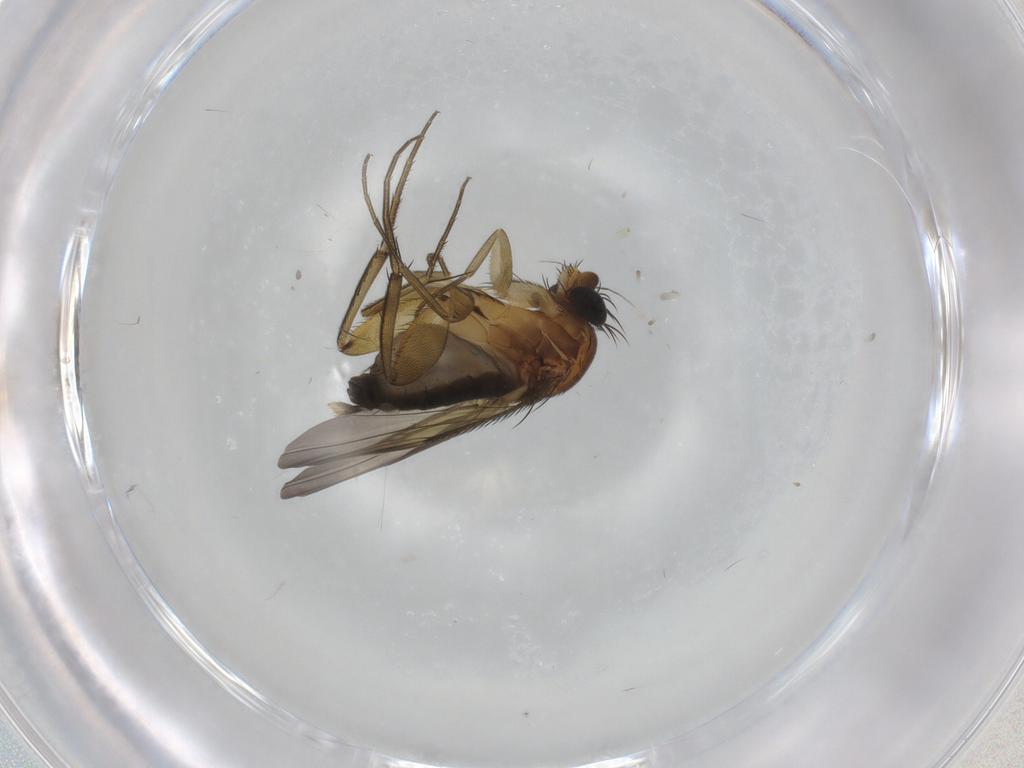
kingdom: Animalia
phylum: Arthropoda
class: Insecta
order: Diptera
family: Phoridae
